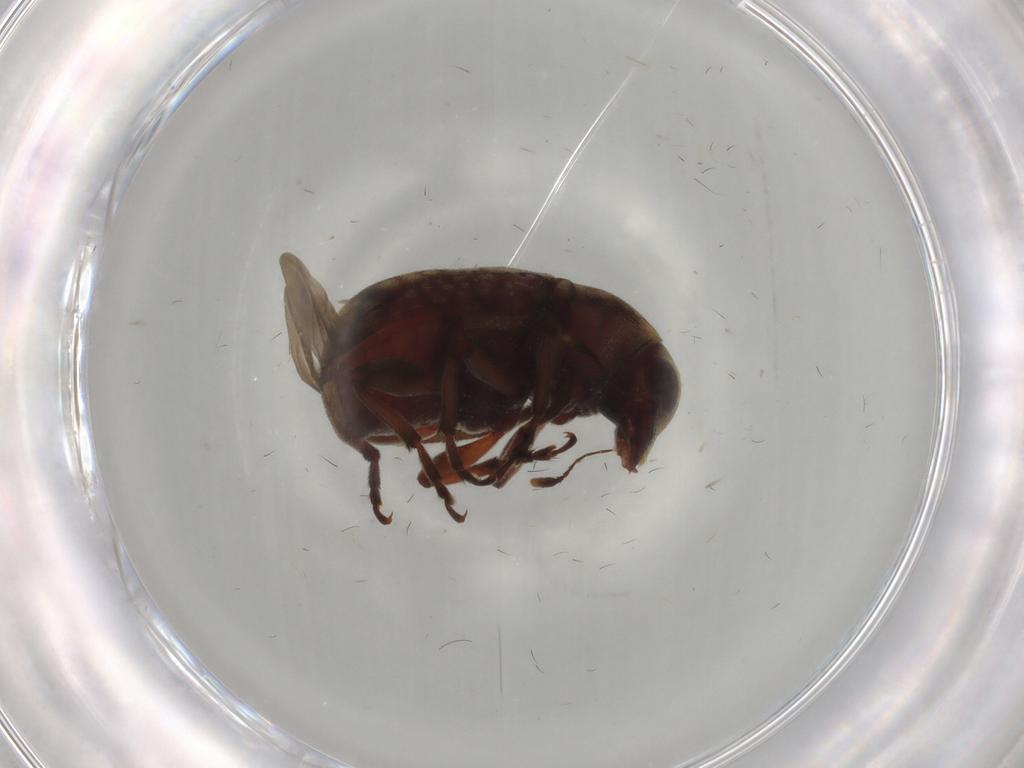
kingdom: Animalia
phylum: Arthropoda
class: Insecta
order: Coleoptera
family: Anthribidae
